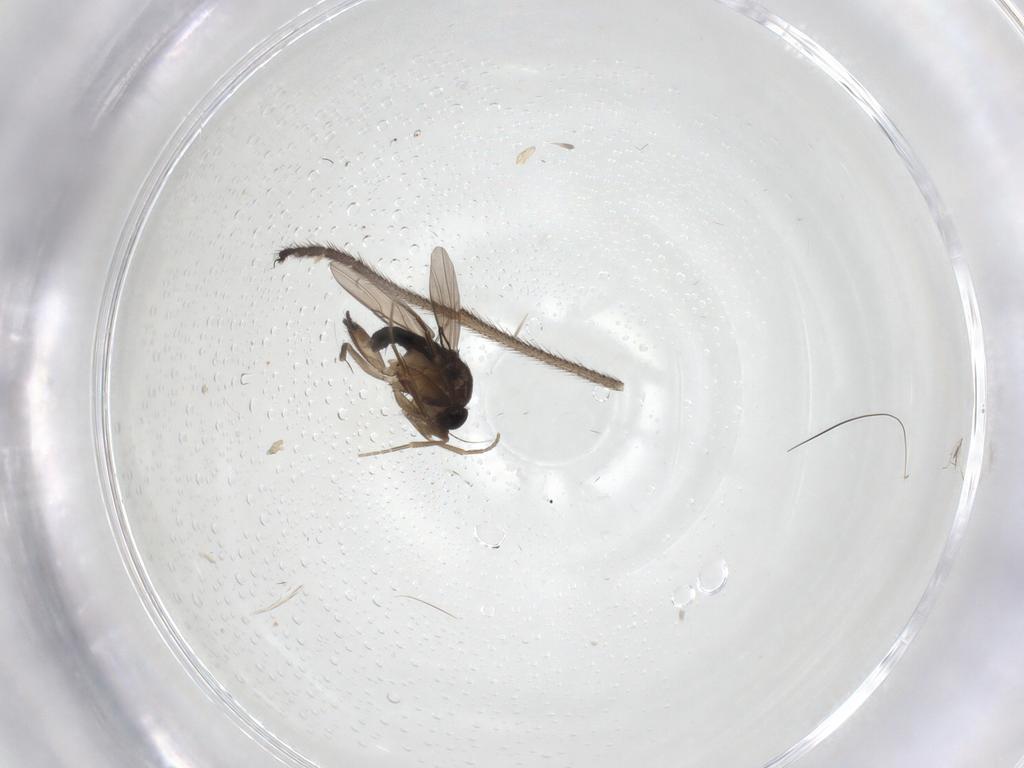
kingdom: Animalia
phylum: Arthropoda
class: Insecta
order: Diptera
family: Phoridae
